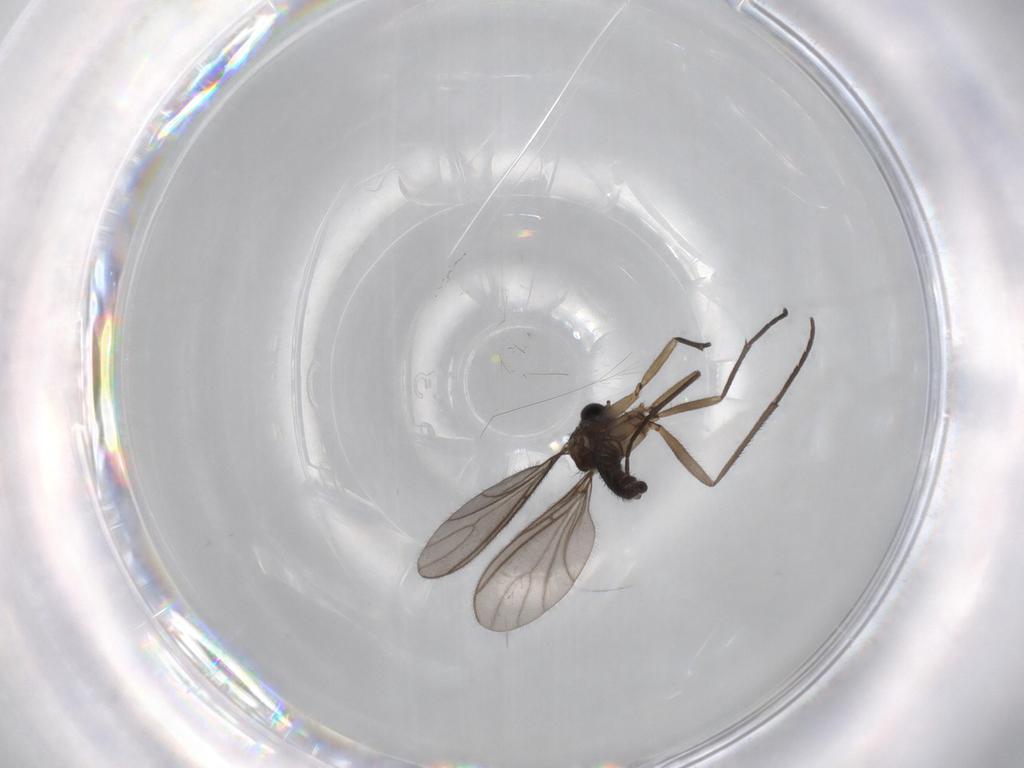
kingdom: Animalia
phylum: Arthropoda
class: Insecta
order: Diptera
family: Sciaridae
